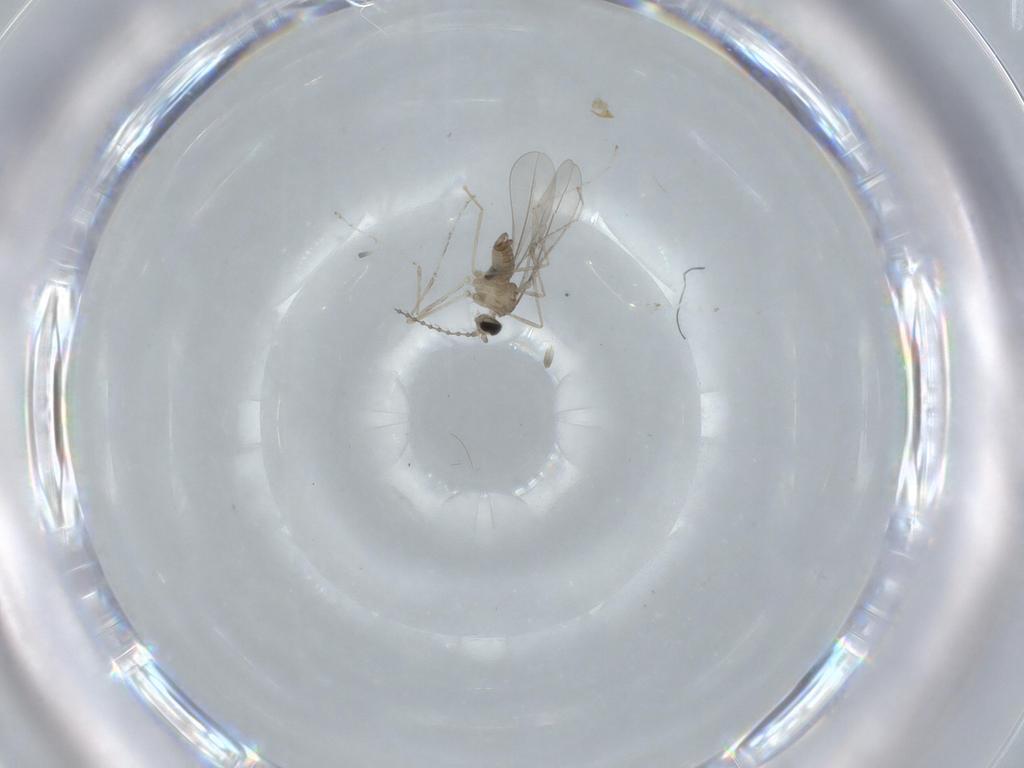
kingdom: Animalia
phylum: Arthropoda
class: Insecta
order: Diptera
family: Cecidomyiidae
